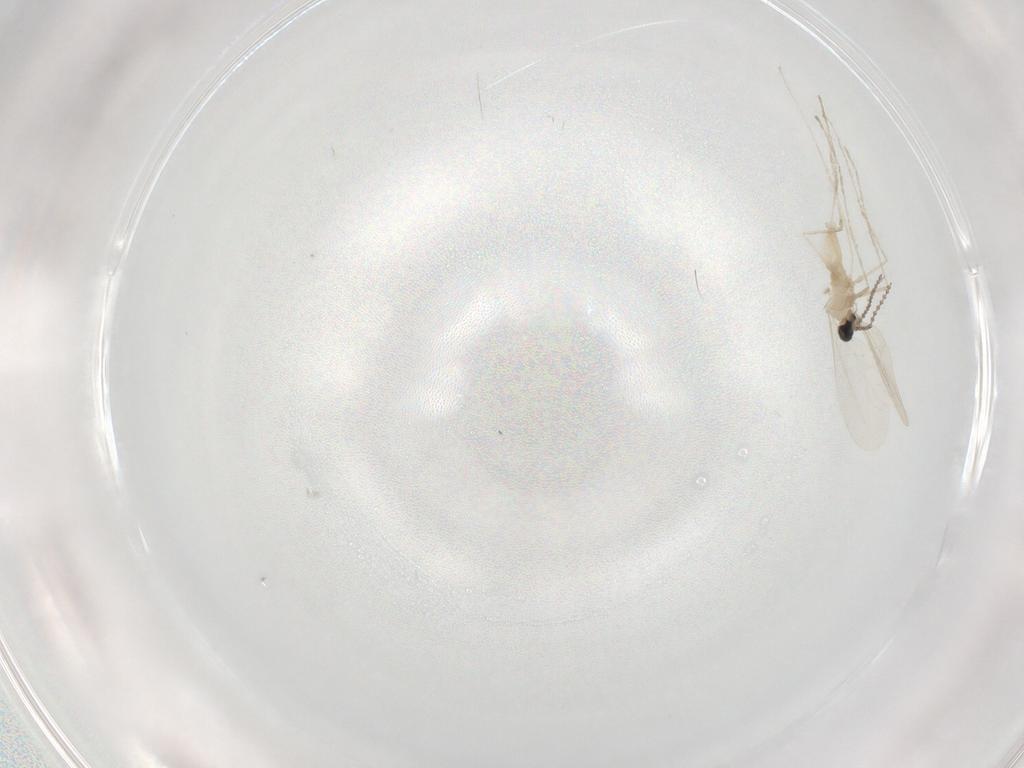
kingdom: Animalia
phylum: Arthropoda
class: Insecta
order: Diptera
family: Cecidomyiidae
